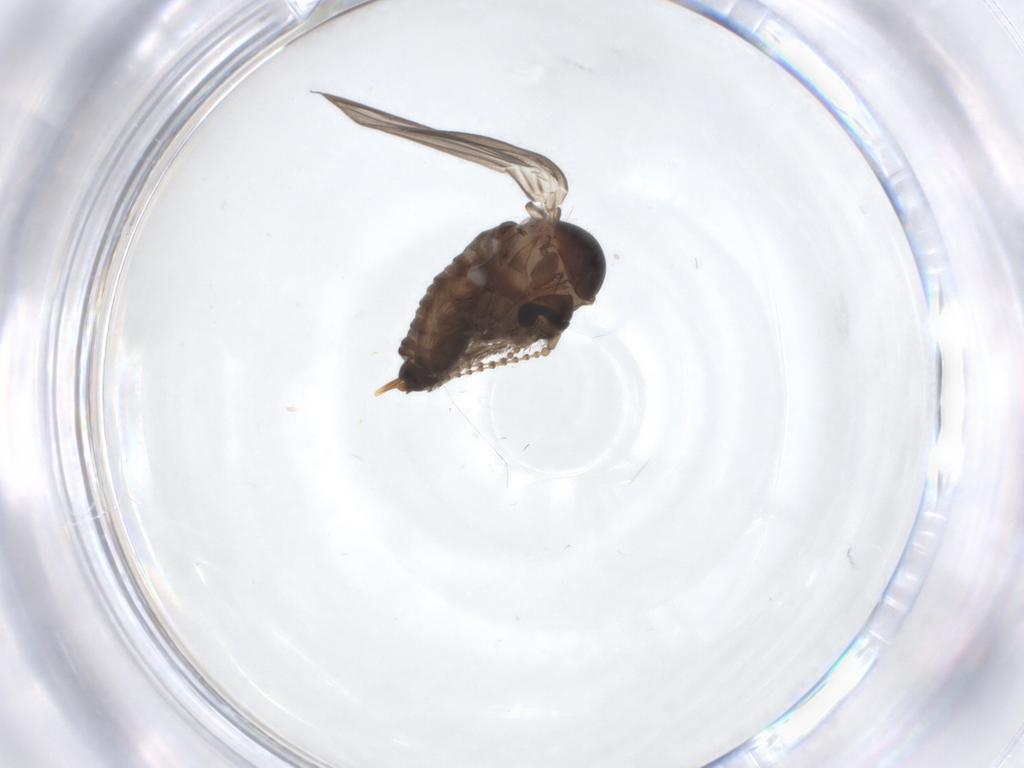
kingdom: Animalia
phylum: Arthropoda
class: Insecta
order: Diptera
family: Psychodidae
